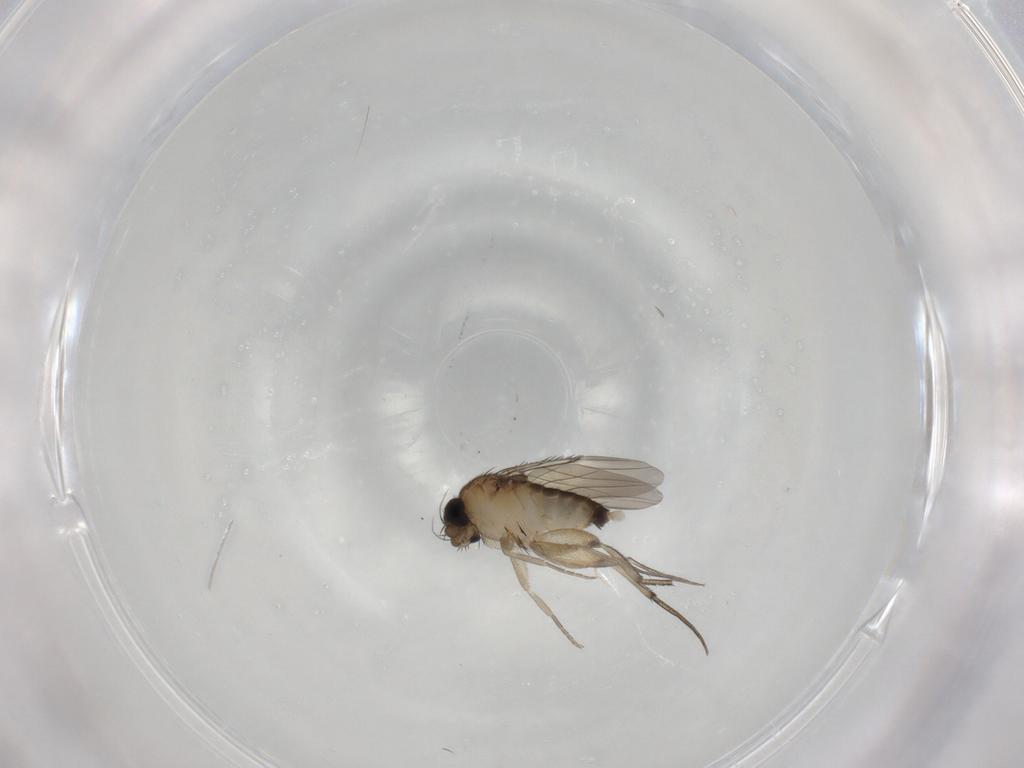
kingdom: Animalia
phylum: Arthropoda
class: Insecta
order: Diptera
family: Phoridae
